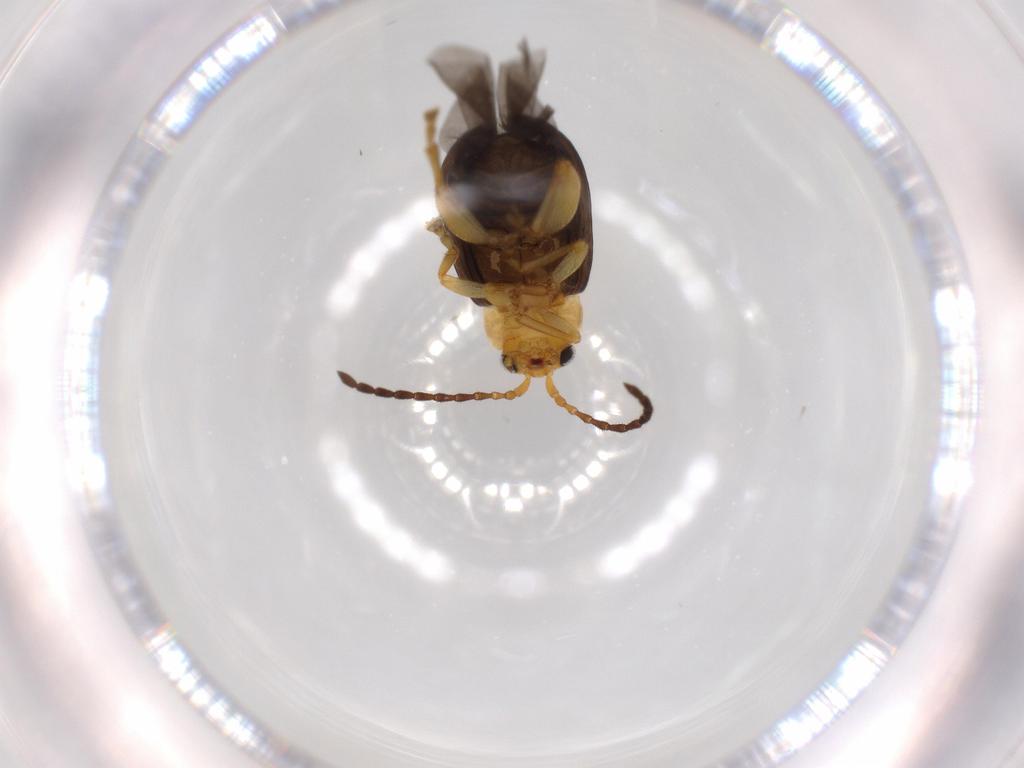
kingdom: Animalia
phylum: Arthropoda
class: Insecta
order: Coleoptera
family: Chrysomelidae
